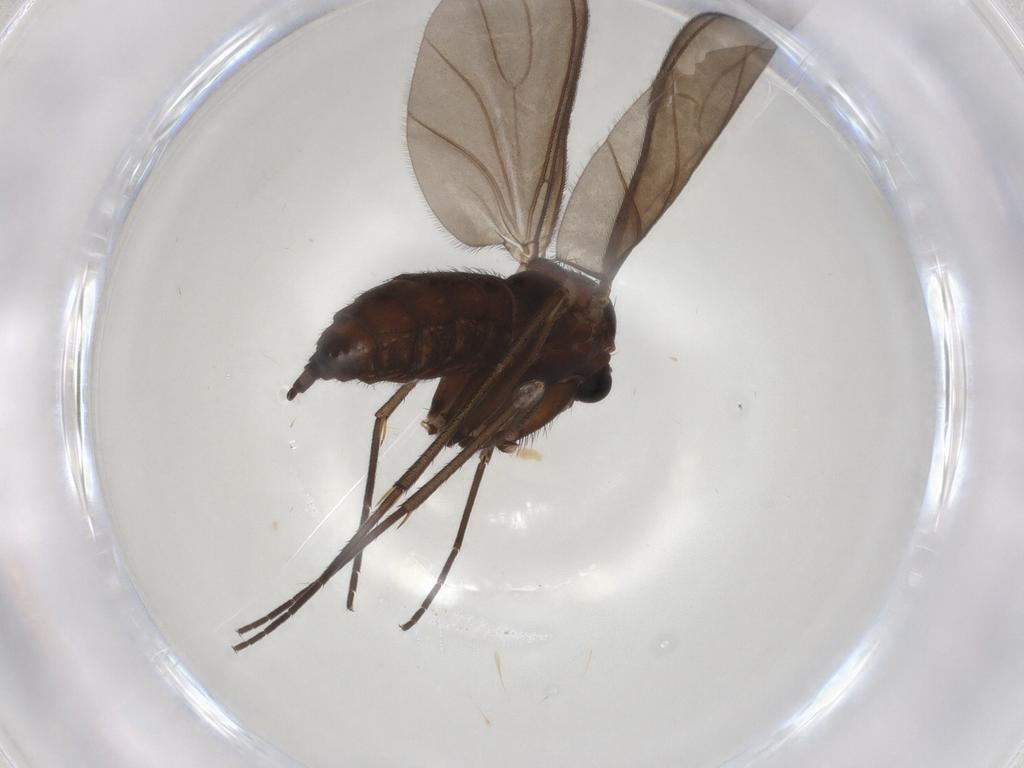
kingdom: Animalia
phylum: Arthropoda
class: Insecta
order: Diptera
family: Sciaridae
